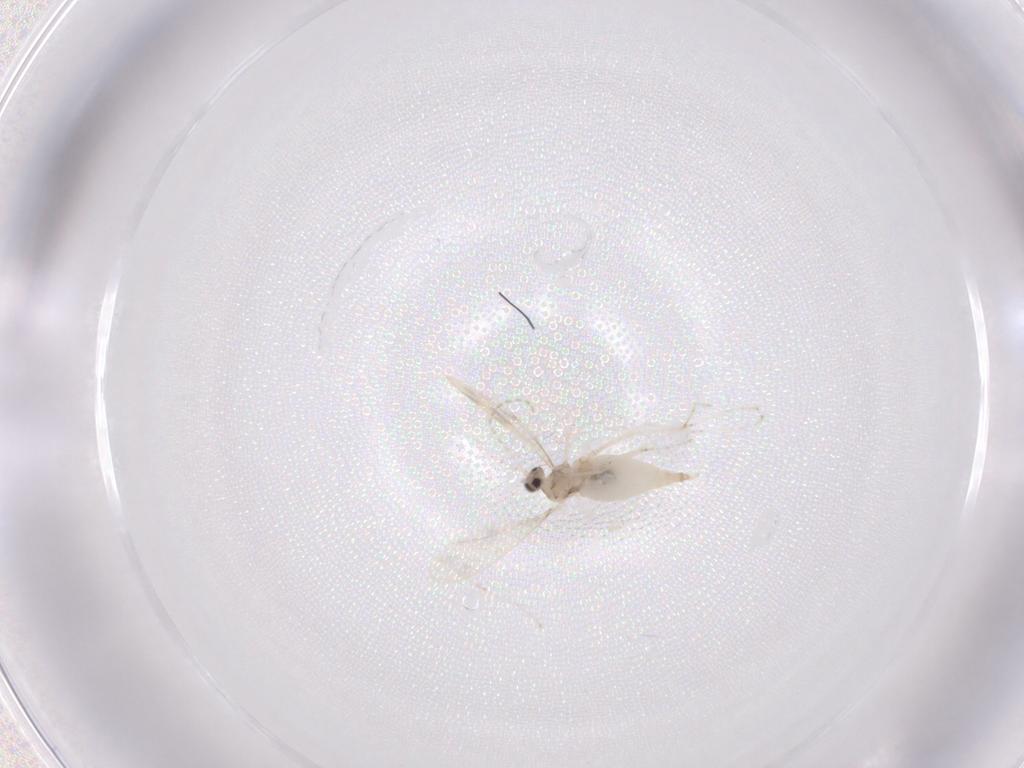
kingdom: Animalia
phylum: Arthropoda
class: Insecta
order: Diptera
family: Cecidomyiidae
